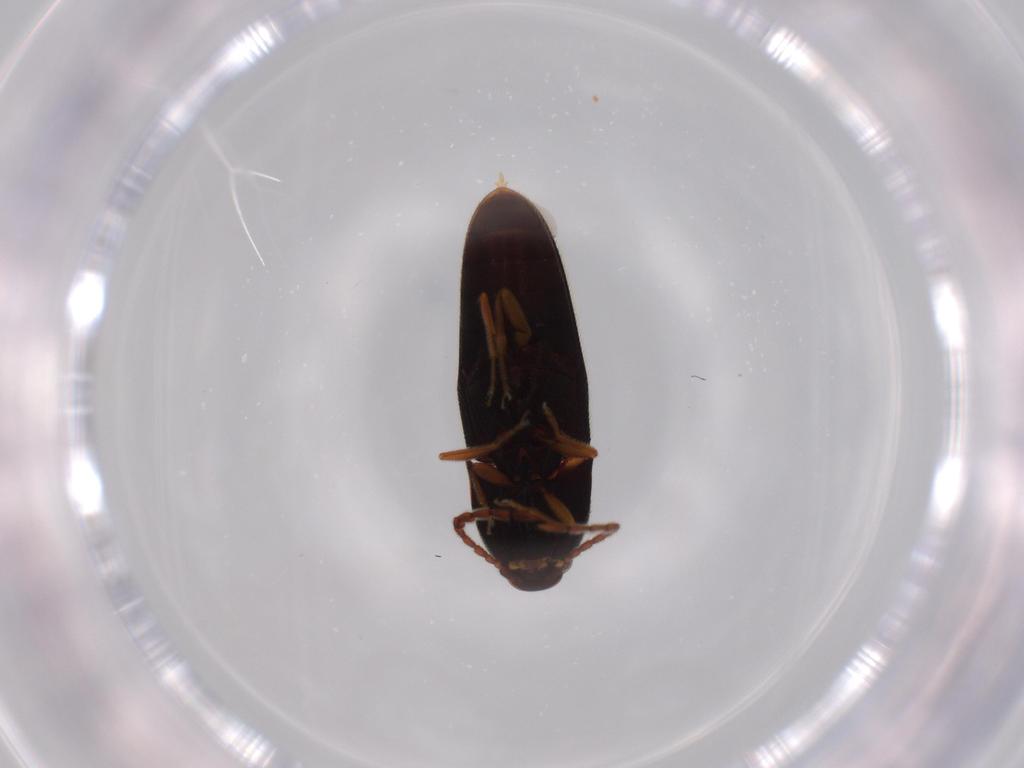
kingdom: Animalia
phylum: Arthropoda
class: Insecta
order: Coleoptera
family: Elateridae
